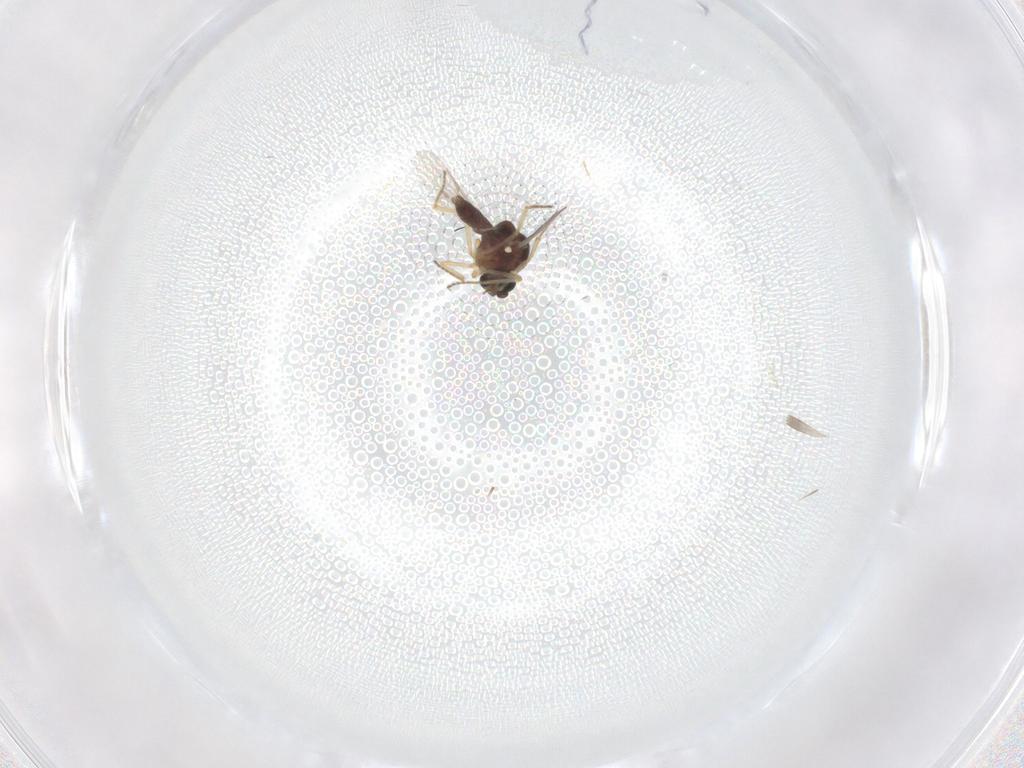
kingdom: Animalia
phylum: Arthropoda
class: Insecta
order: Diptera
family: Cecidomyiidae
